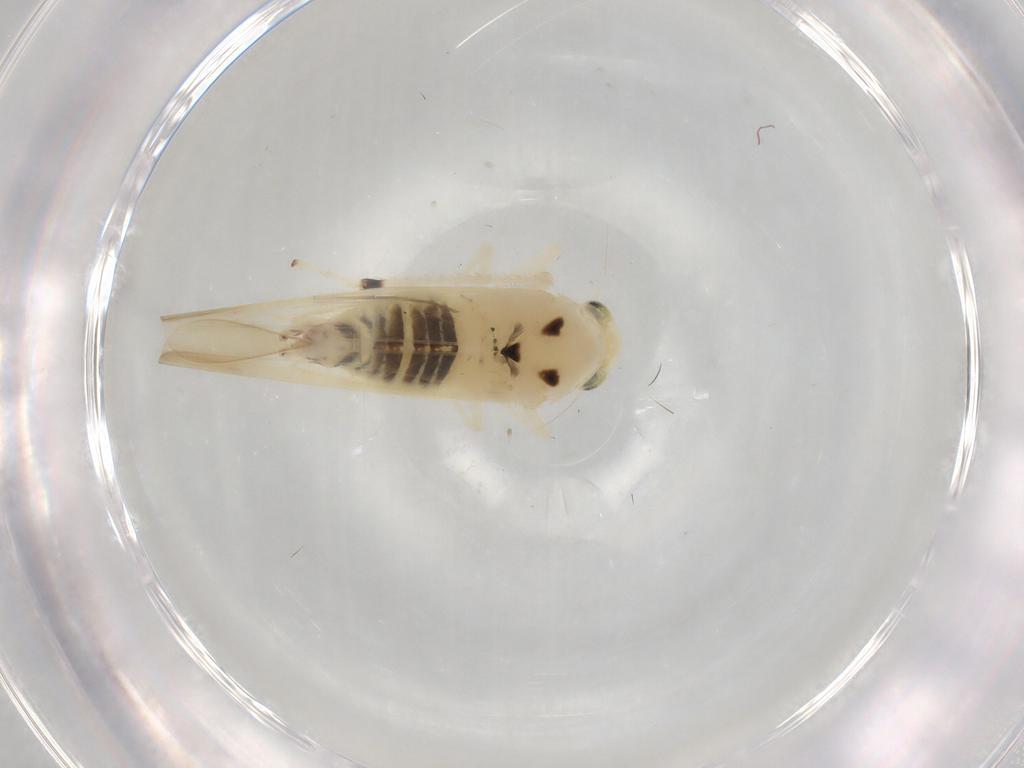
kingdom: Animalia
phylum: Arthropoda
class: Insecta
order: Hemiptera
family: Cicadellidae
